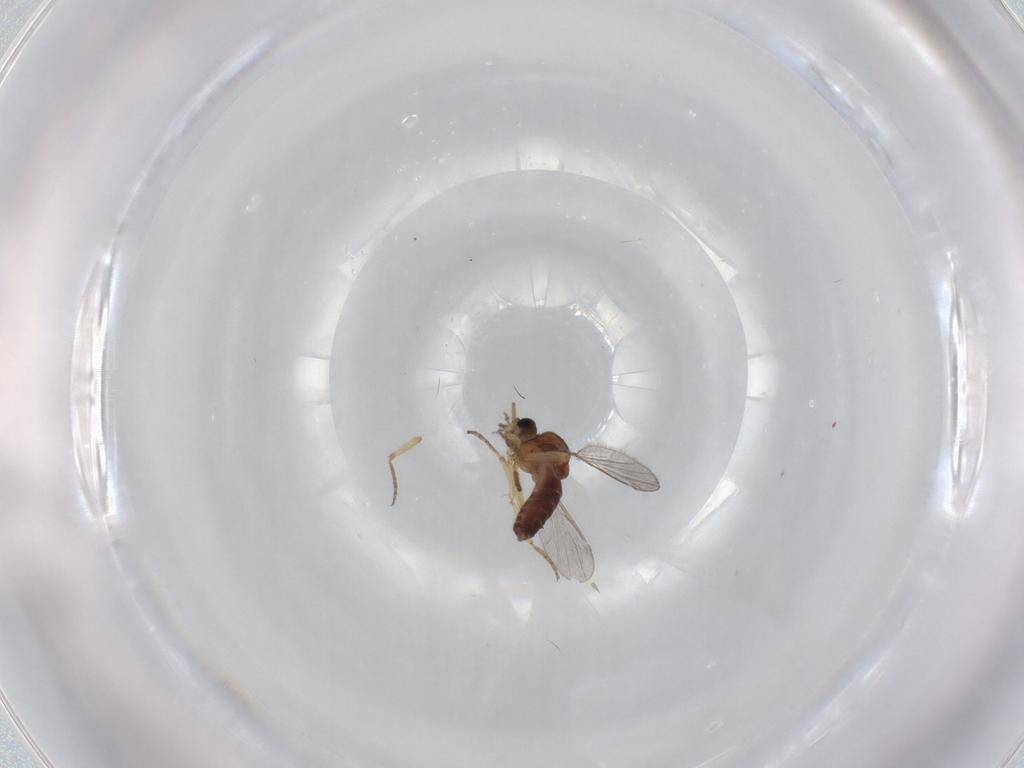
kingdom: Animalia
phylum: Arthropoda
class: Insecta
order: Diptera
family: Ceratopogonidae
